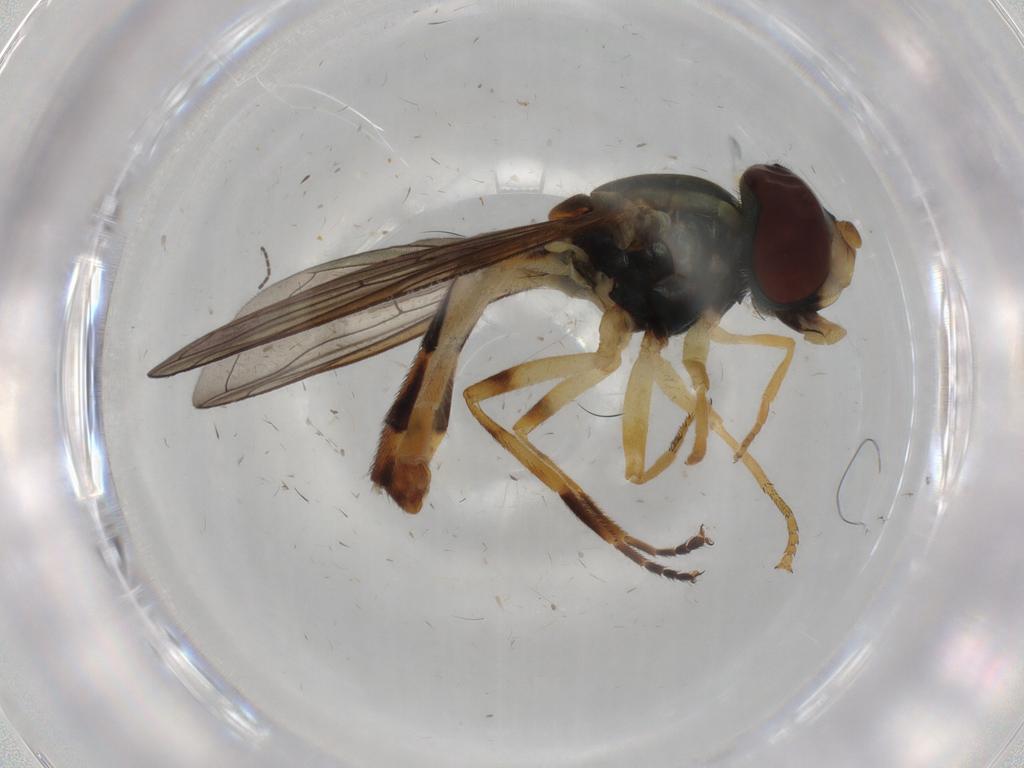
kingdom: Animalia
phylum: Arthropoda
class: Insecta
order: Diptera
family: Syrphidae
